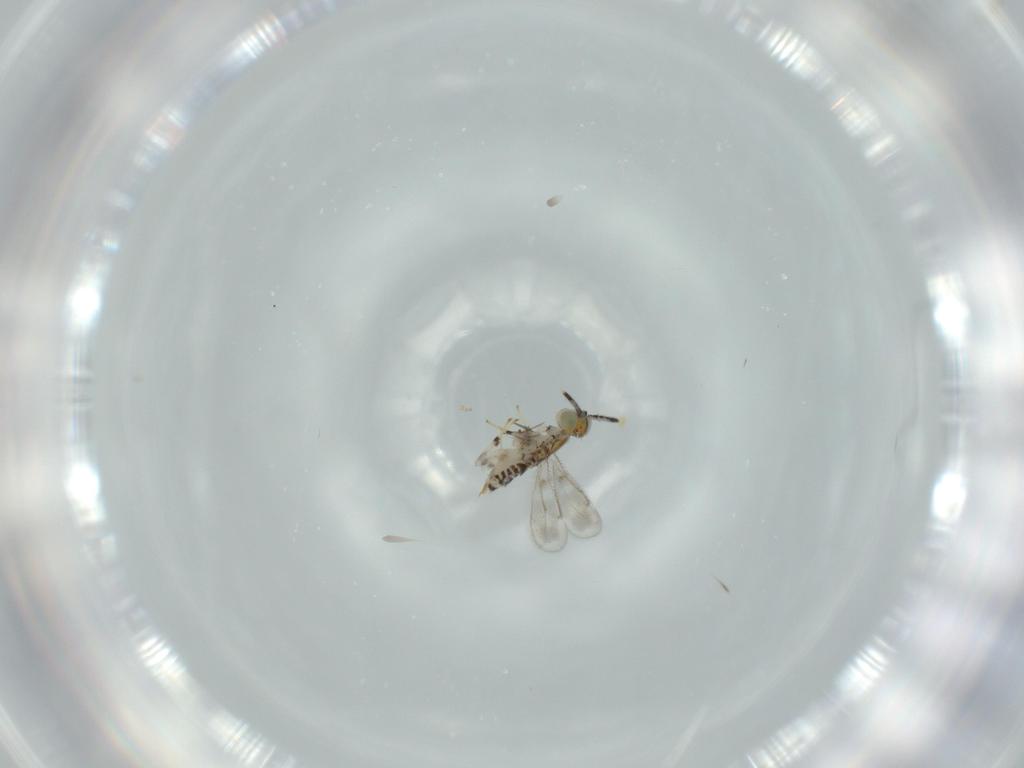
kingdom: Animalia
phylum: Arthropoda
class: Insecta
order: Hymenoptera
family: Aphelinidae
